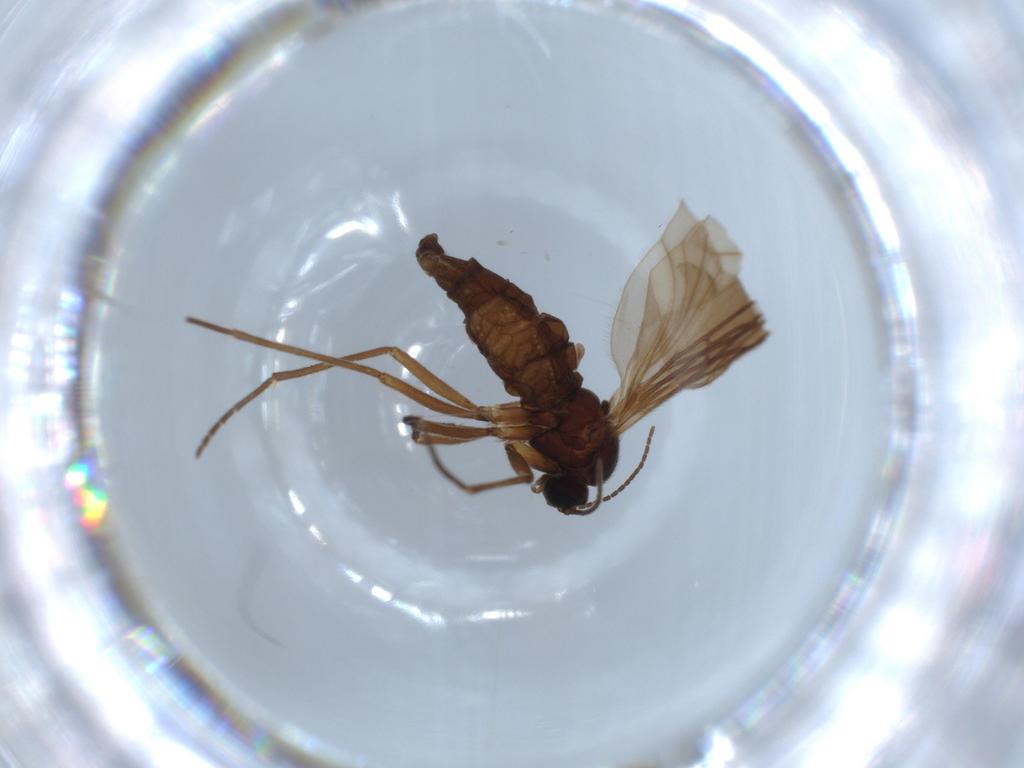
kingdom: Animalia
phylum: Arthropoda
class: Insecta
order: Diptera
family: Sciaridae
